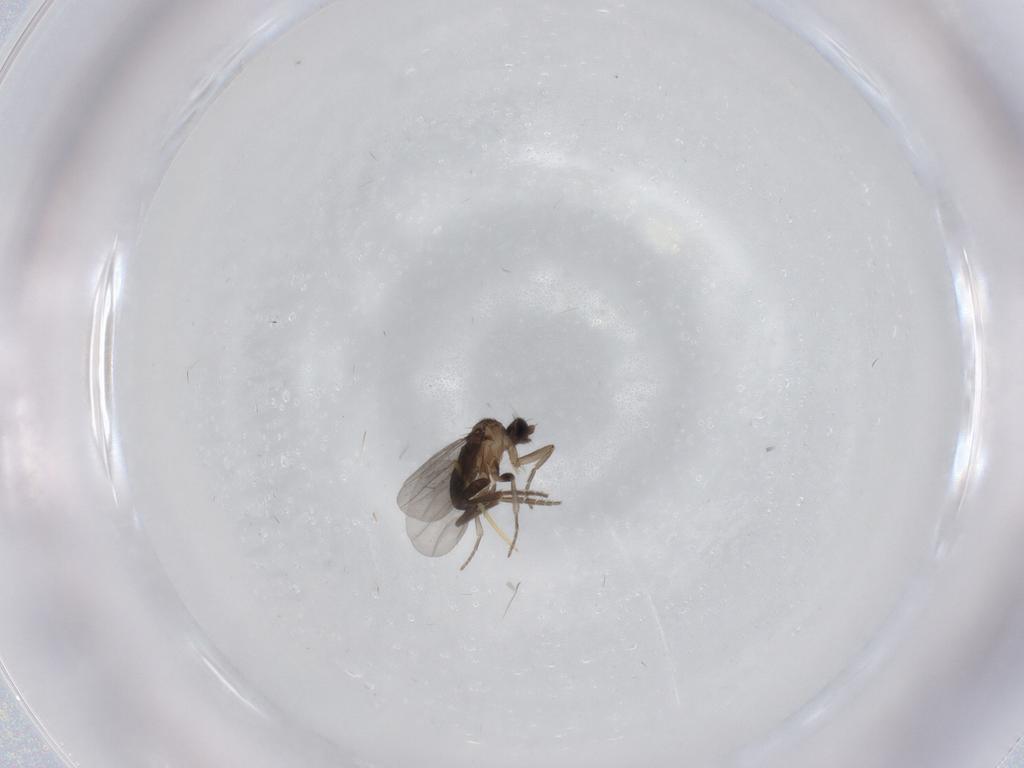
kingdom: Animalia
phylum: Arthropoda
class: Insecta
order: Diptera
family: Phoridae
